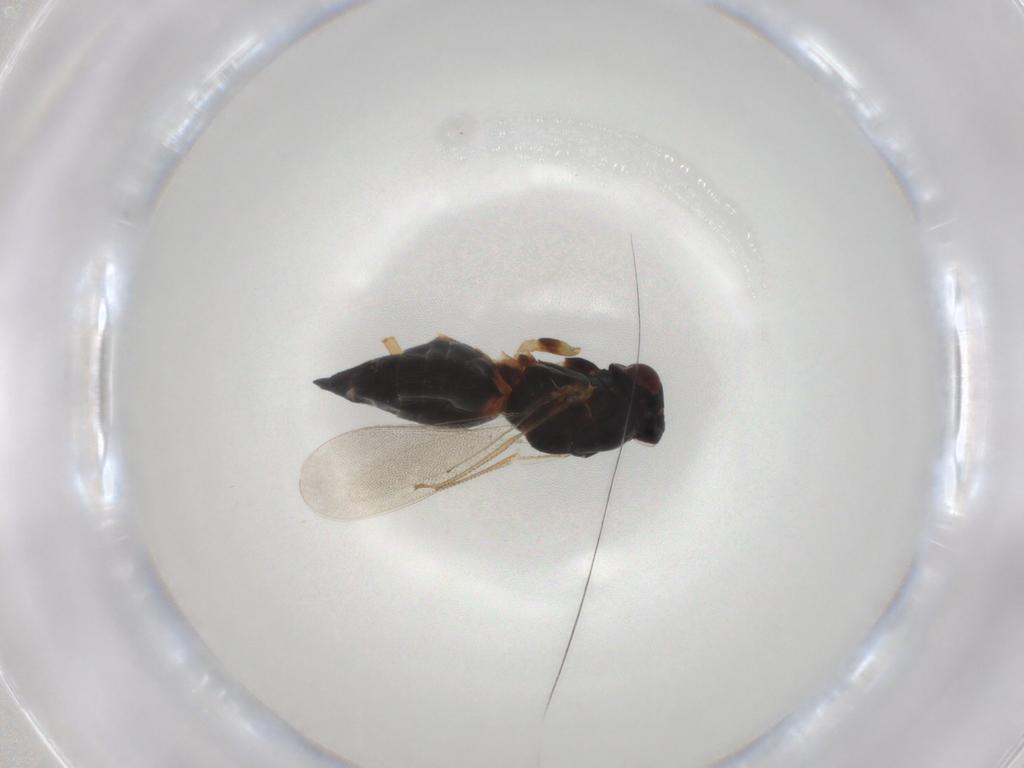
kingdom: Animalia
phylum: Arthropoda
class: Insecta
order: Hymenoptera
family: Eulophidae
